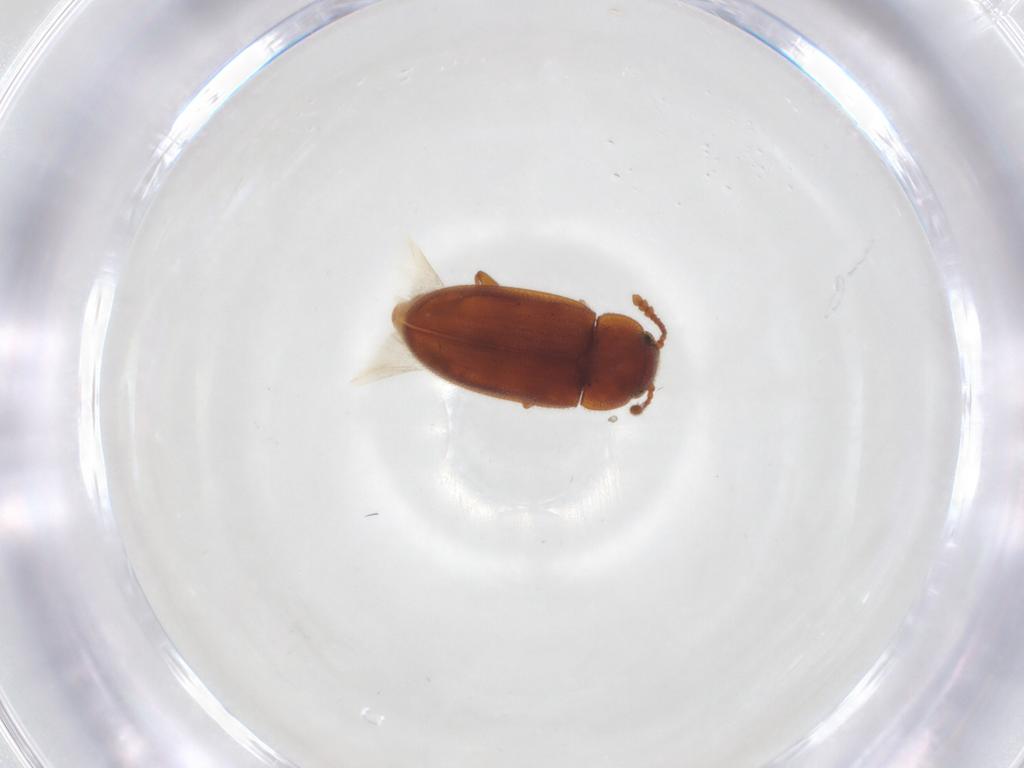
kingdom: Animalia
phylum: Arthropoda
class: Insecta
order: Coleoptera
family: Erotylidae
